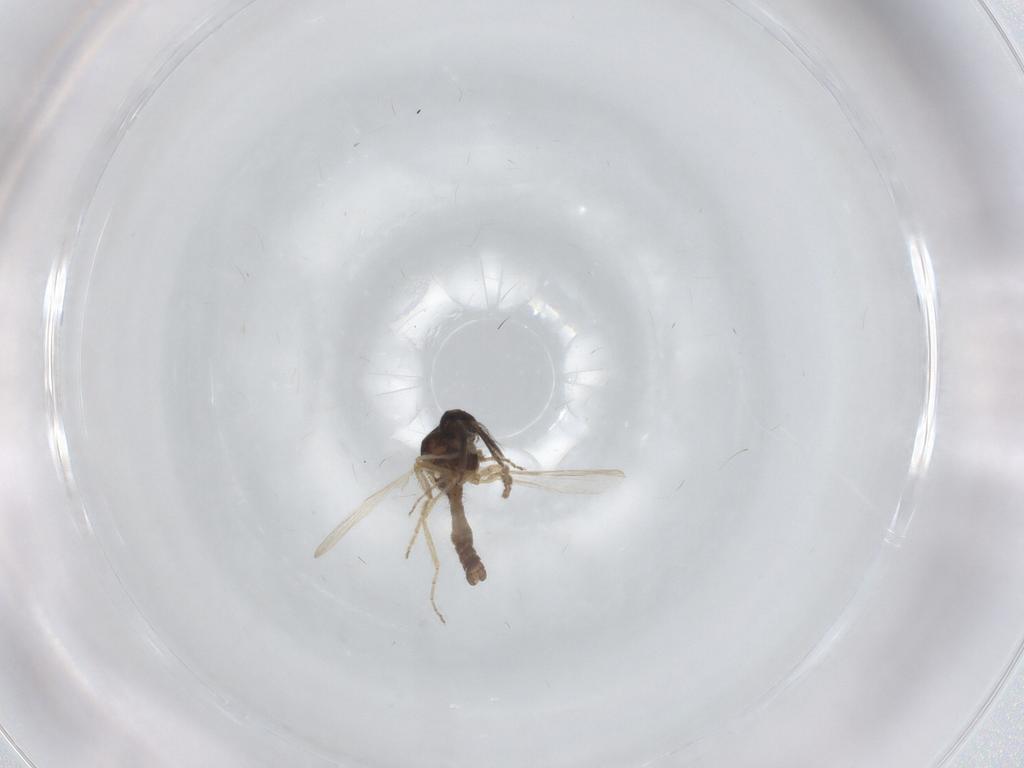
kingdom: Animalia
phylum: Arthropoda
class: Insecta
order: Diptera
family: Ceratopogonidae
